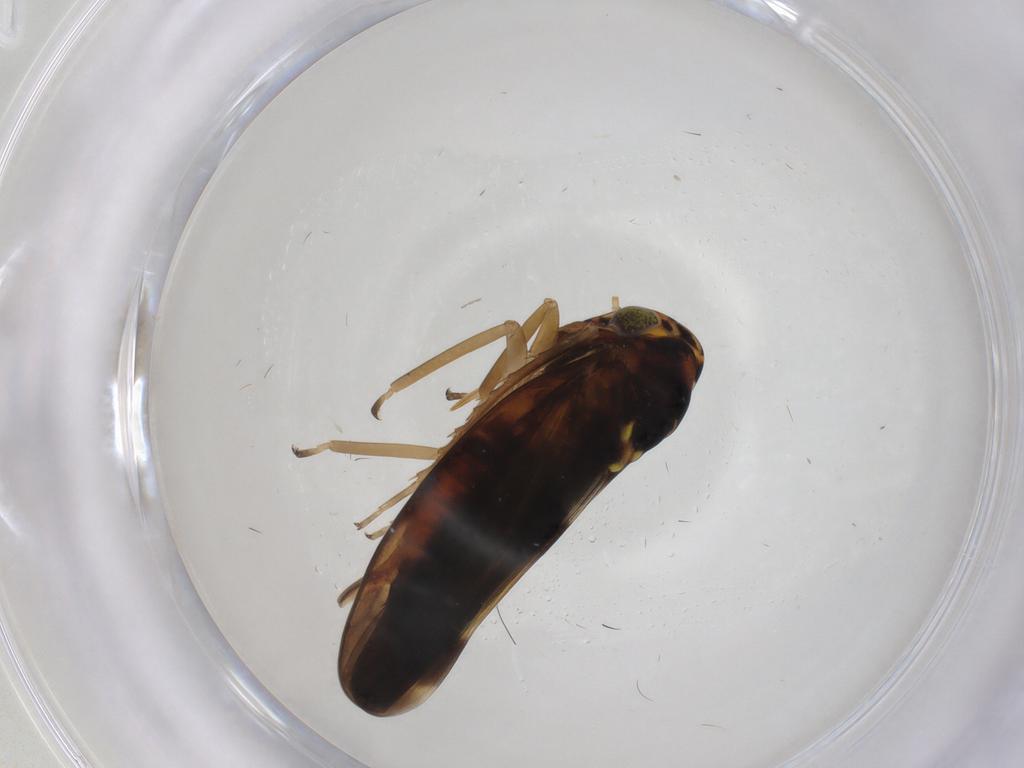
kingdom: Animalia
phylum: Arthropoda
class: Insecta
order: Hemiptera
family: Cicadellidae
